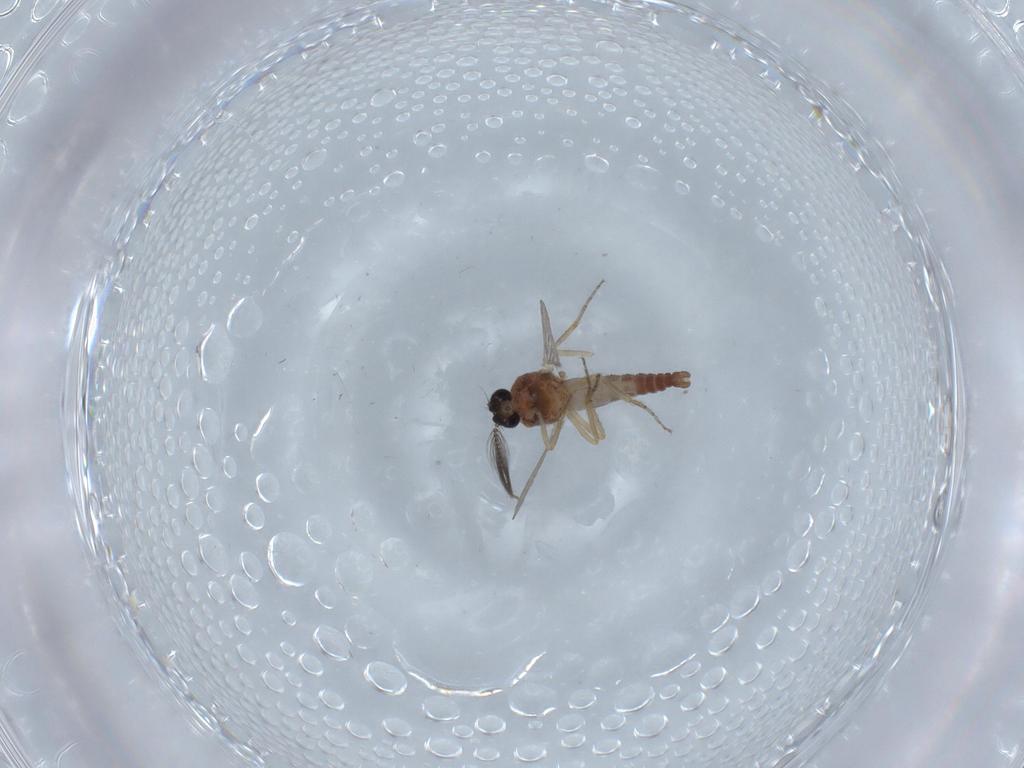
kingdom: Animalia
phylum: Arthropoda
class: Insecta
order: Diptera
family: Ceratopogonidae
